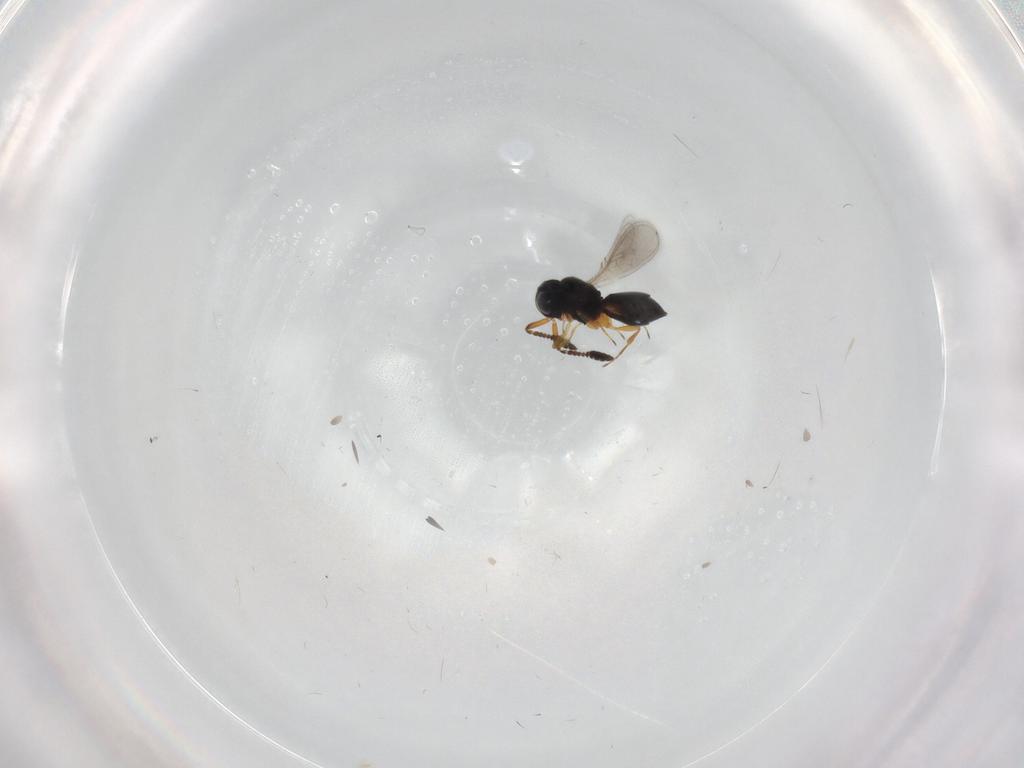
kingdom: Animalia
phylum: Arthropoda
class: Insecta
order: Hymenoptera
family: Scelionidae
